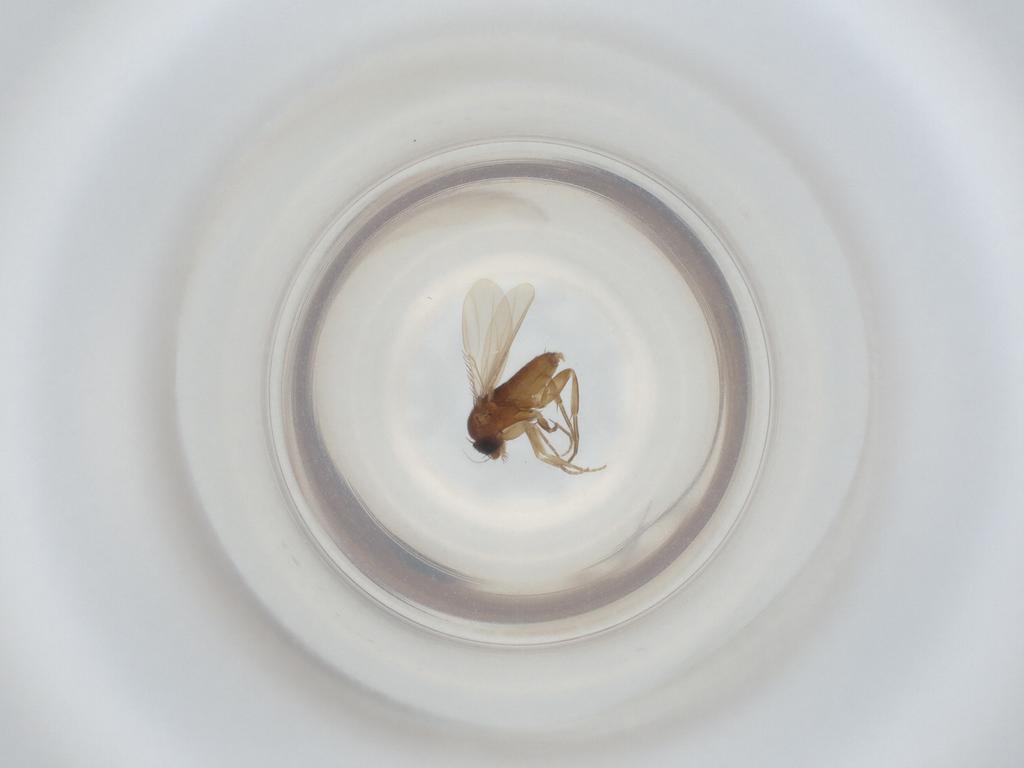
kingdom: Animalia
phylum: Arthropoda
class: Insecta
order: Diptera
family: Phoridae
